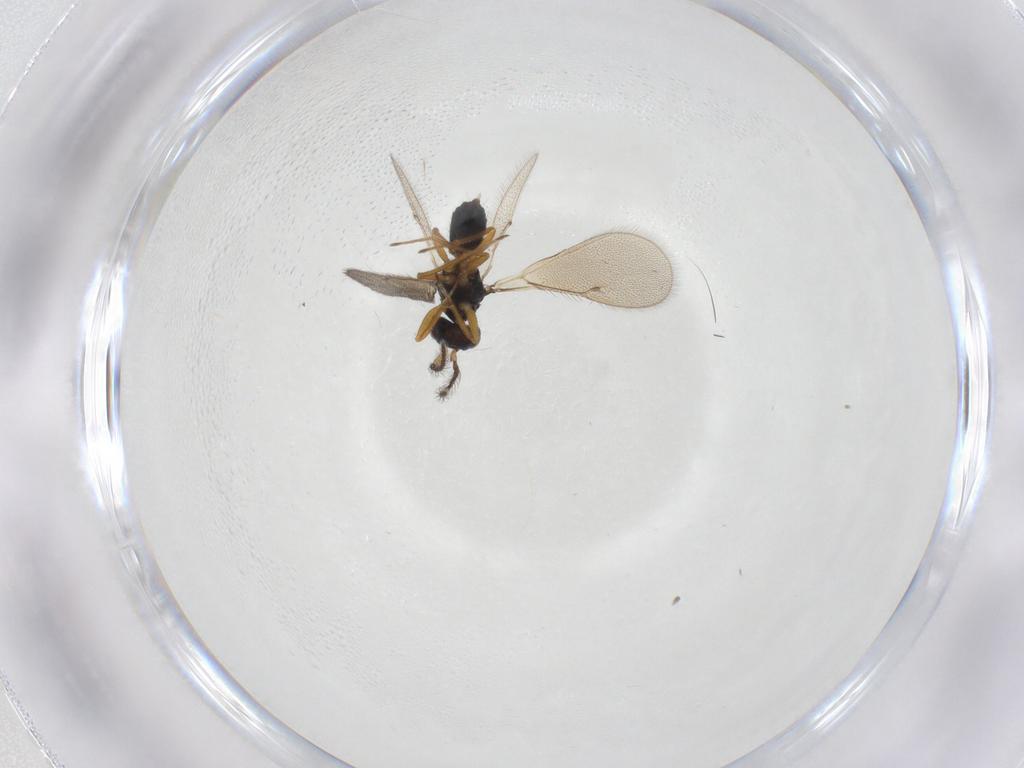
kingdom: Animalia
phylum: Arthropoda
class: Insecta
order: Hymenoptera
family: Eulophidae
